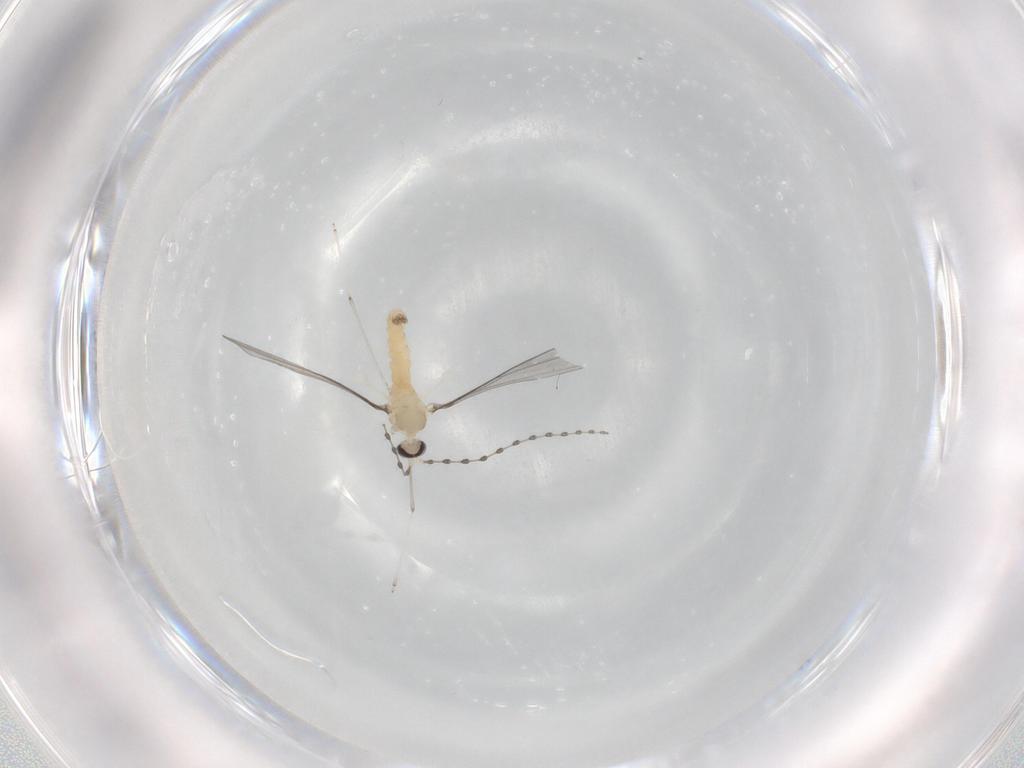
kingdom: Animalia
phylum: Arthropoda
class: Insecta
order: Diptera
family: Cecidomyiidae
